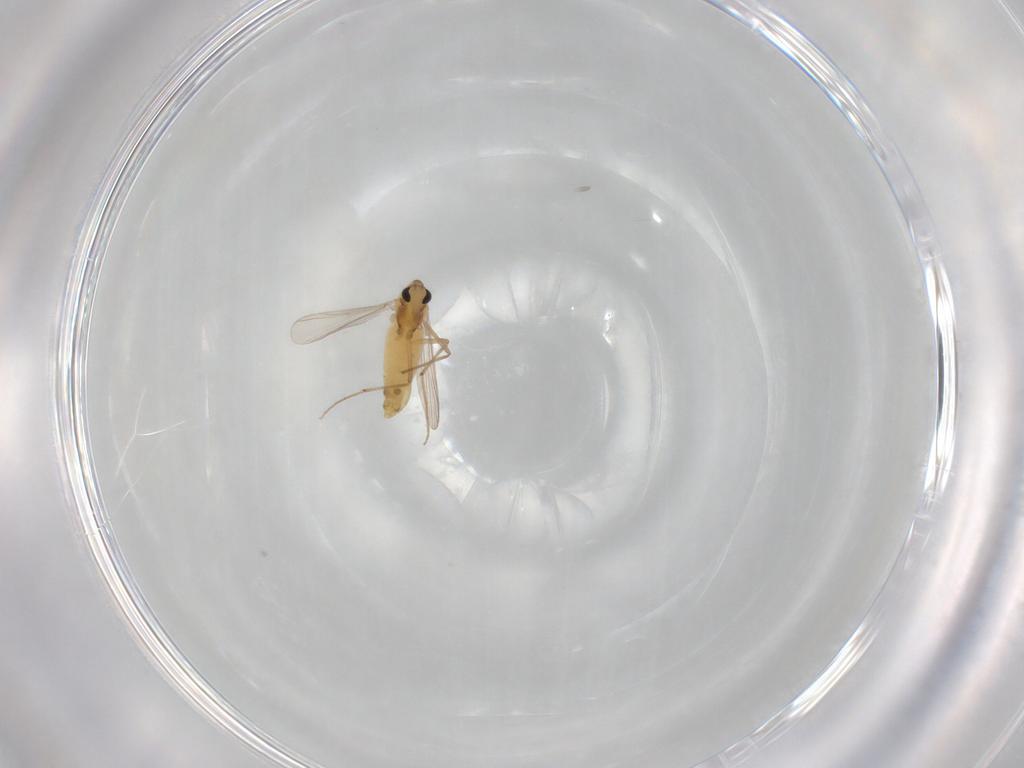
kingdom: Animalia
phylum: Arthropoda
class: Insecta
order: Diptera
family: Chironomidae
